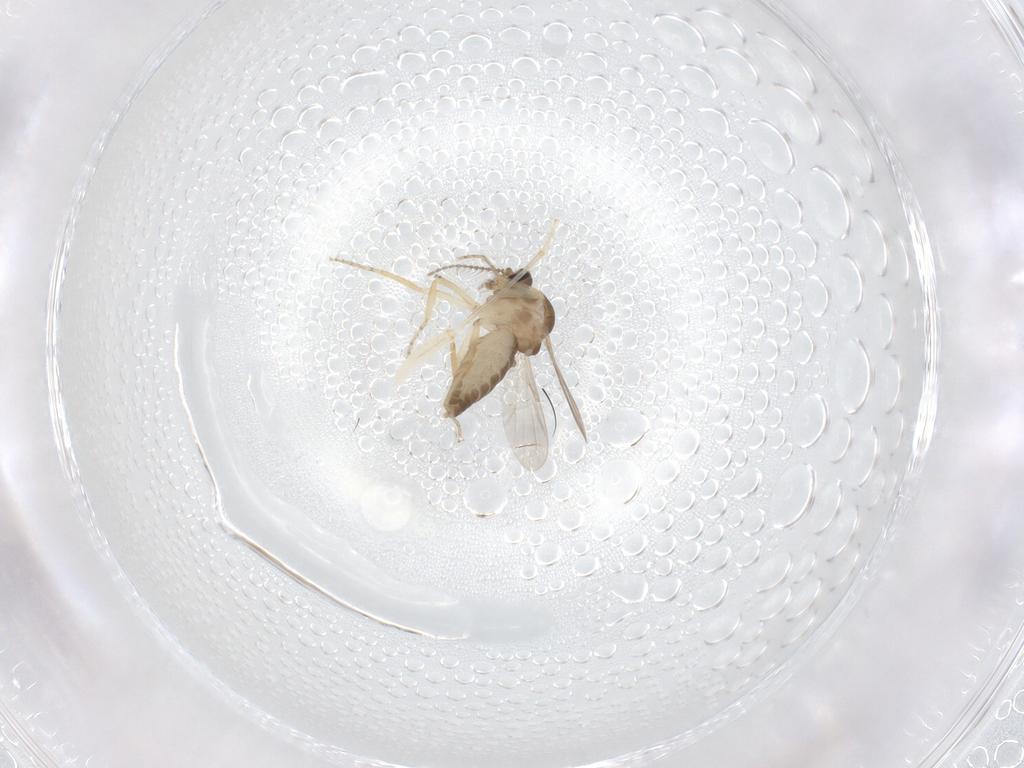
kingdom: Animalia
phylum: Arthropoda
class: Insecta
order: Diptera
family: Ceratopogonidae
